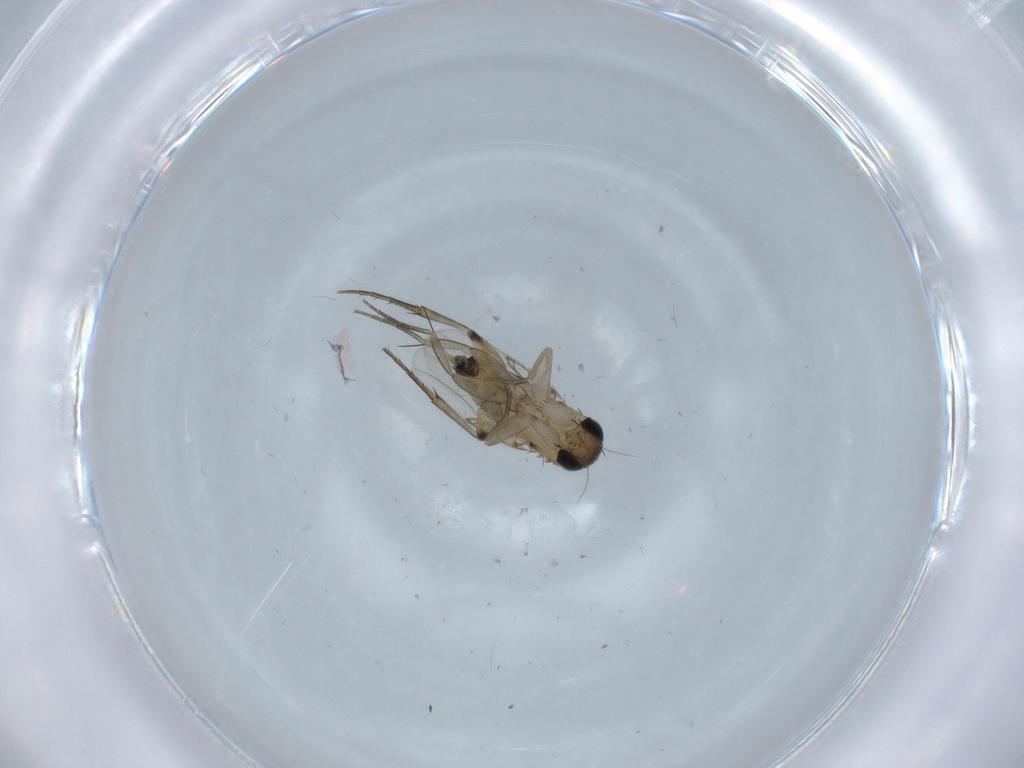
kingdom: Animalia
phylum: Arthropoda
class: Insecta
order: Diptera
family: Phoridae
